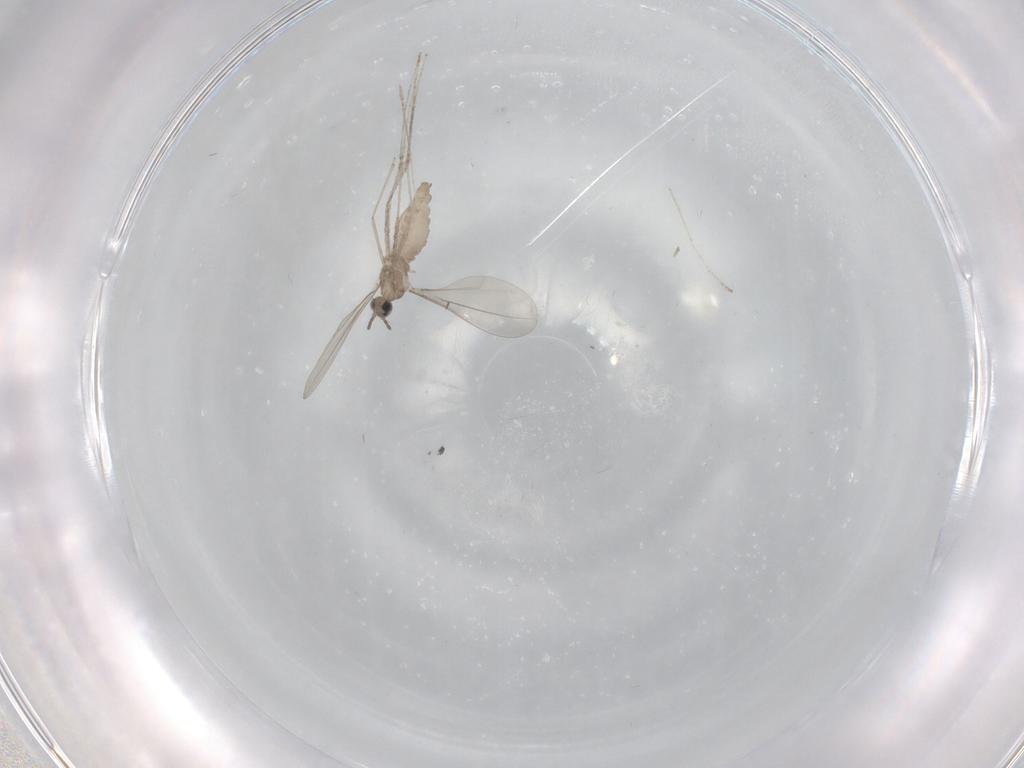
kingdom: Animalia
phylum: Arthropoda
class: Insecta
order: Diptera
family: Cecidomyiidae
